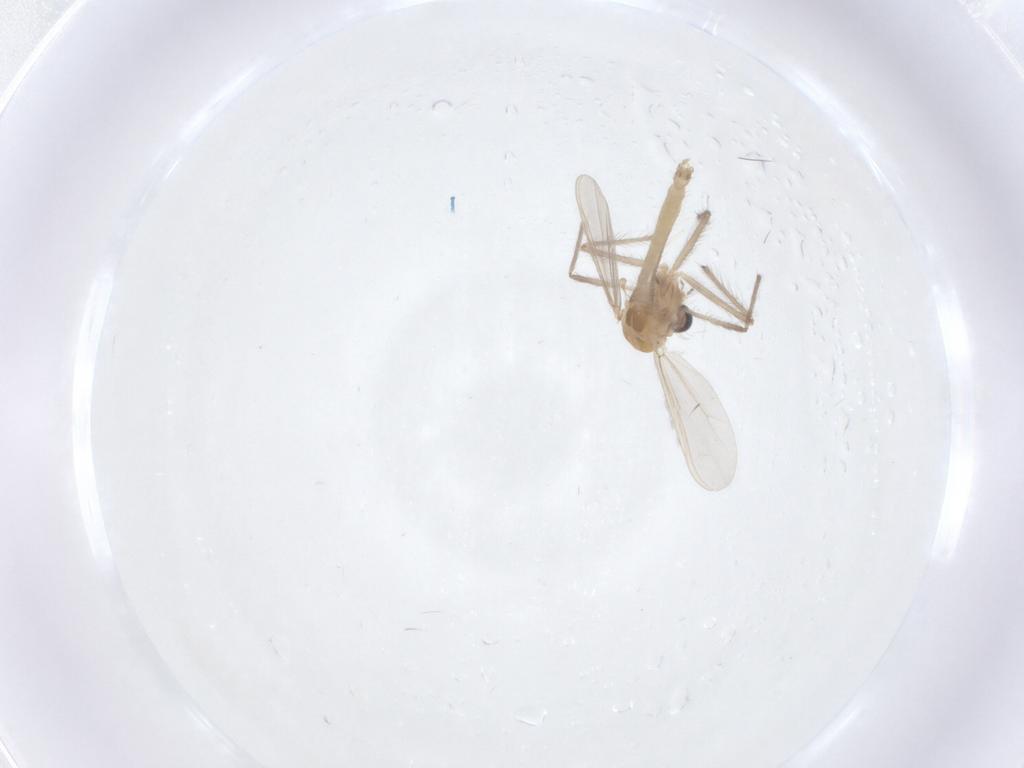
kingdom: Animalia
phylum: Arthropoda
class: Insecta
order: Diptera
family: Chironomidae
